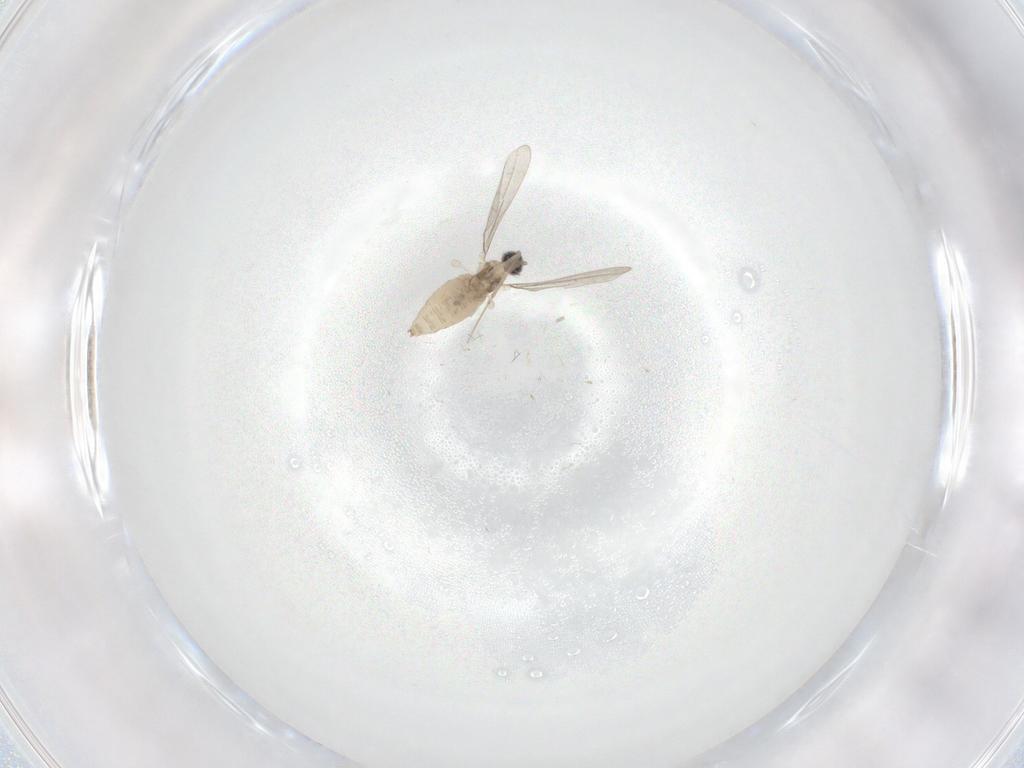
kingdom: Animalia
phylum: Arthropoda
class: Insecta
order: Diptera
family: Cecidomyiidae
